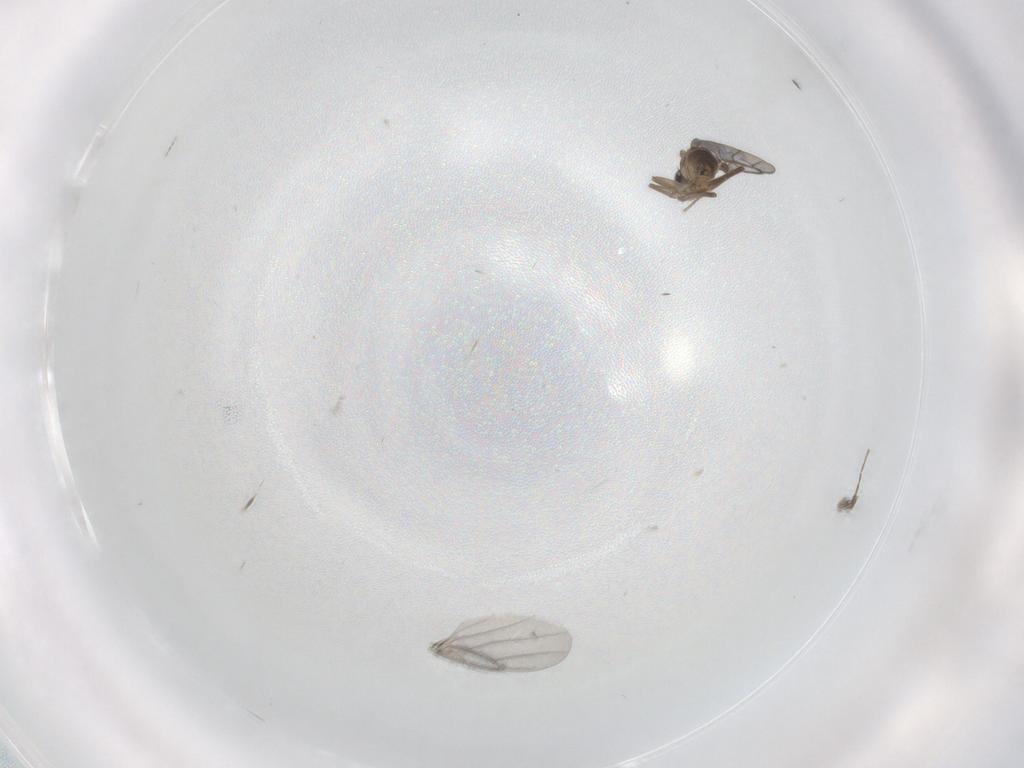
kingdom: Animalia
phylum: Arthropoda
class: Insecta
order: Diptera
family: Psychodidae
